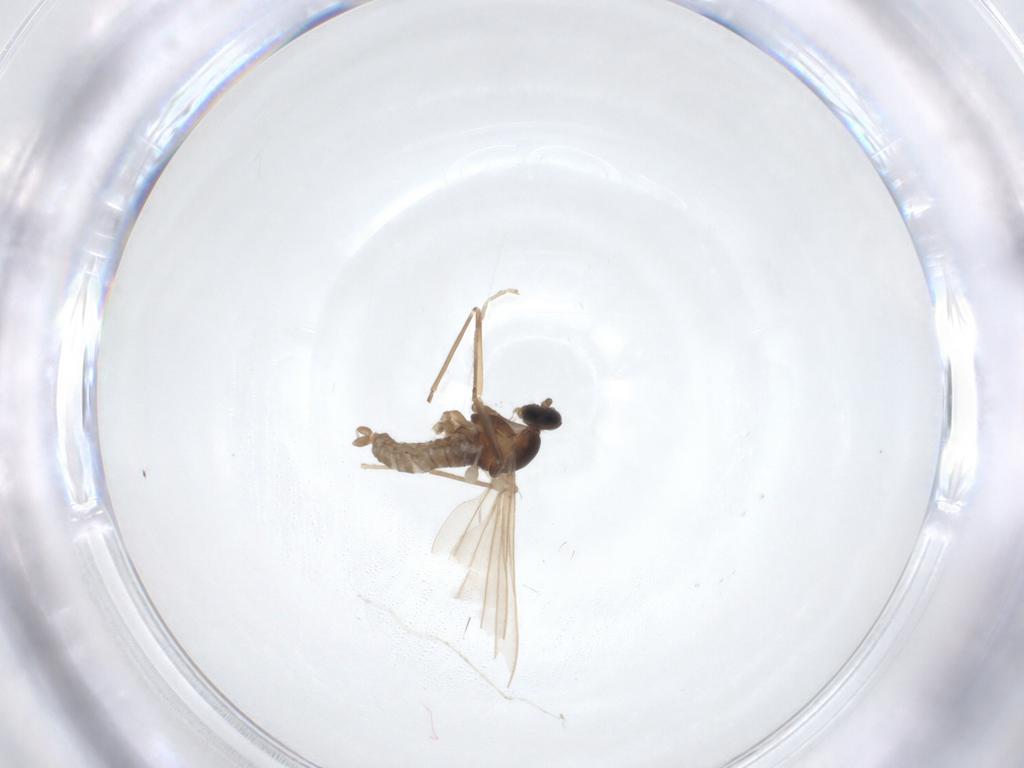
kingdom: Animalia
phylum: Arthropoda
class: Insecta
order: Diptera
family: Cecidomyiidae
